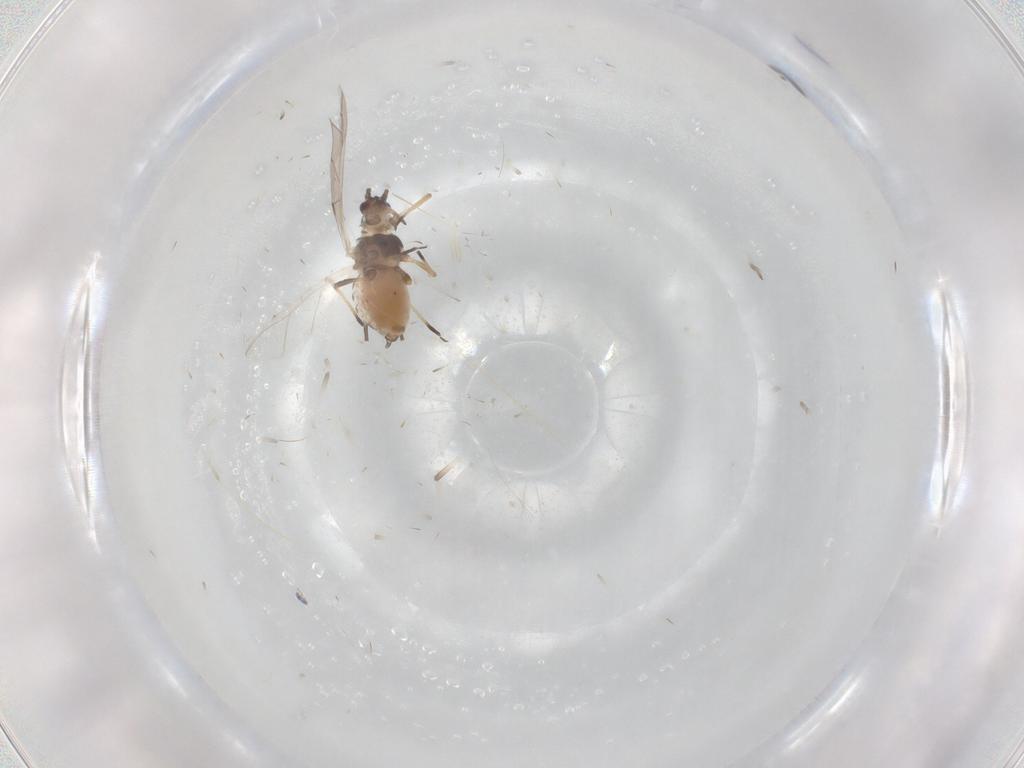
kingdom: Animalia
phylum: Arthropoda
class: Insecta
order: Hemiptera
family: Aphididae
